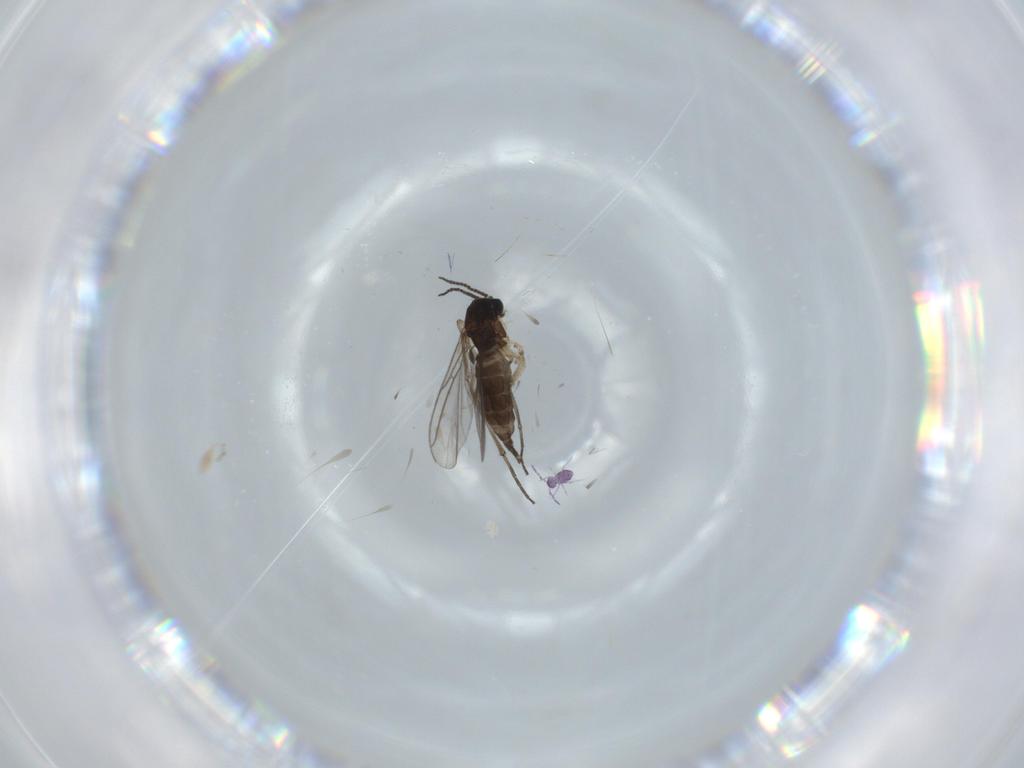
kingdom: Animalia
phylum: Arthropoda
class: Insecta
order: Diptera
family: Sciaridae
